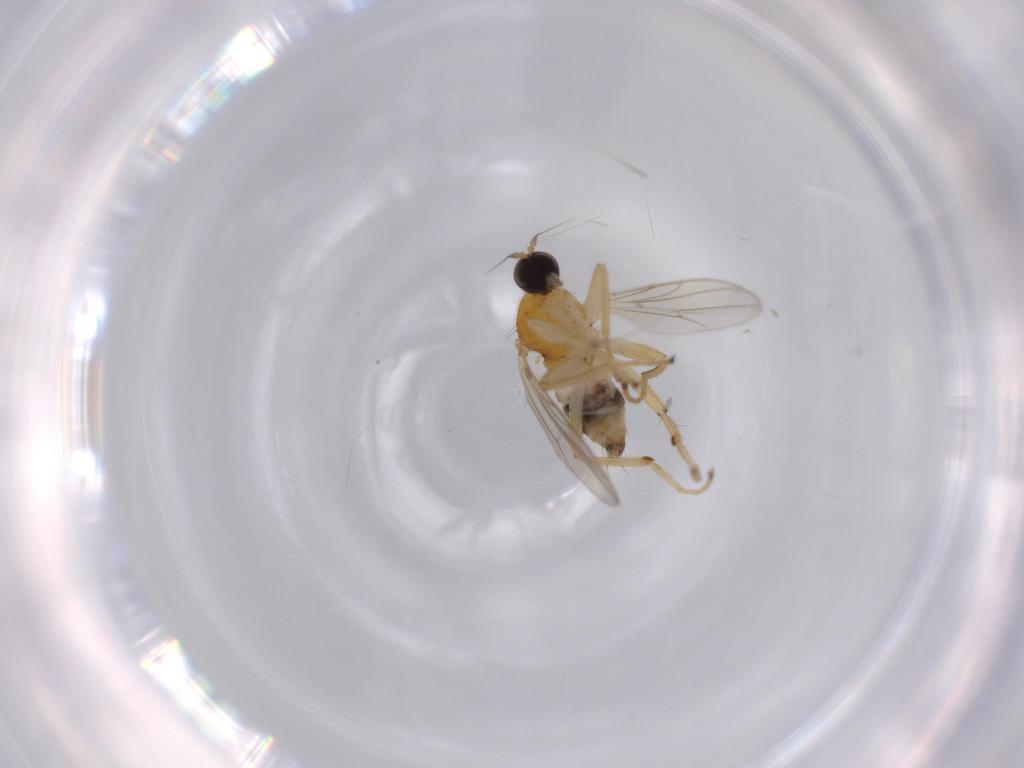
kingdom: Animalia
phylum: Arthropoda
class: Insecta
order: Diptera
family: Hybotidae
